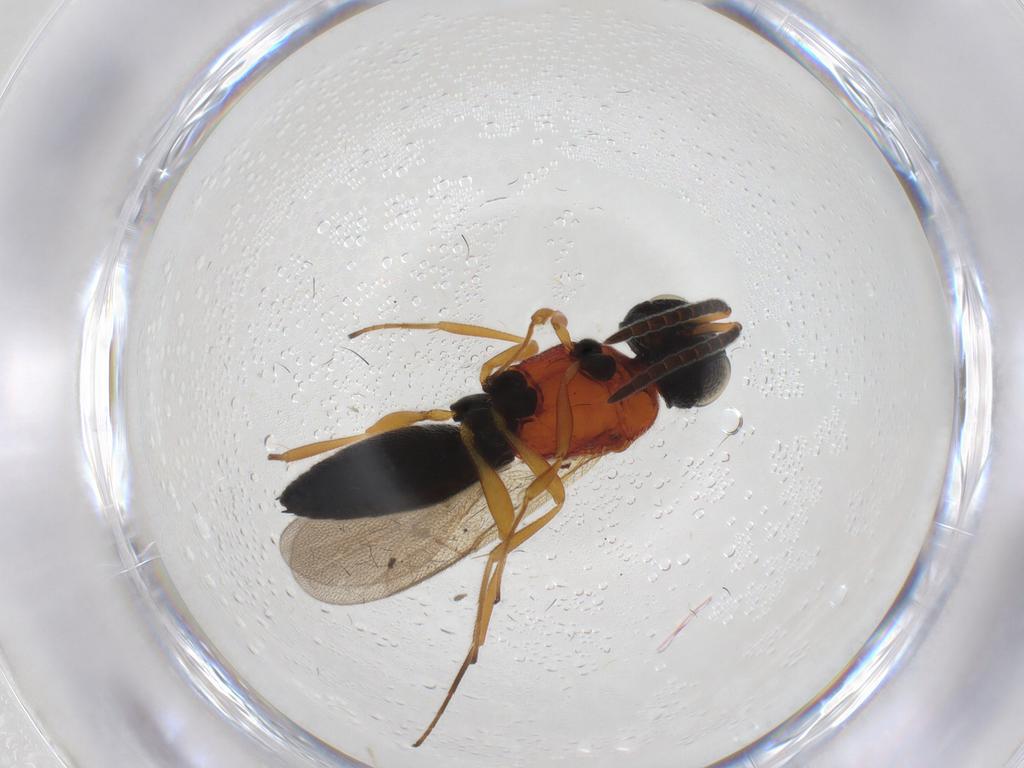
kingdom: Animalia
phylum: Arthropoda
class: Insecta
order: Hymenoptera
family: Scelionidae
